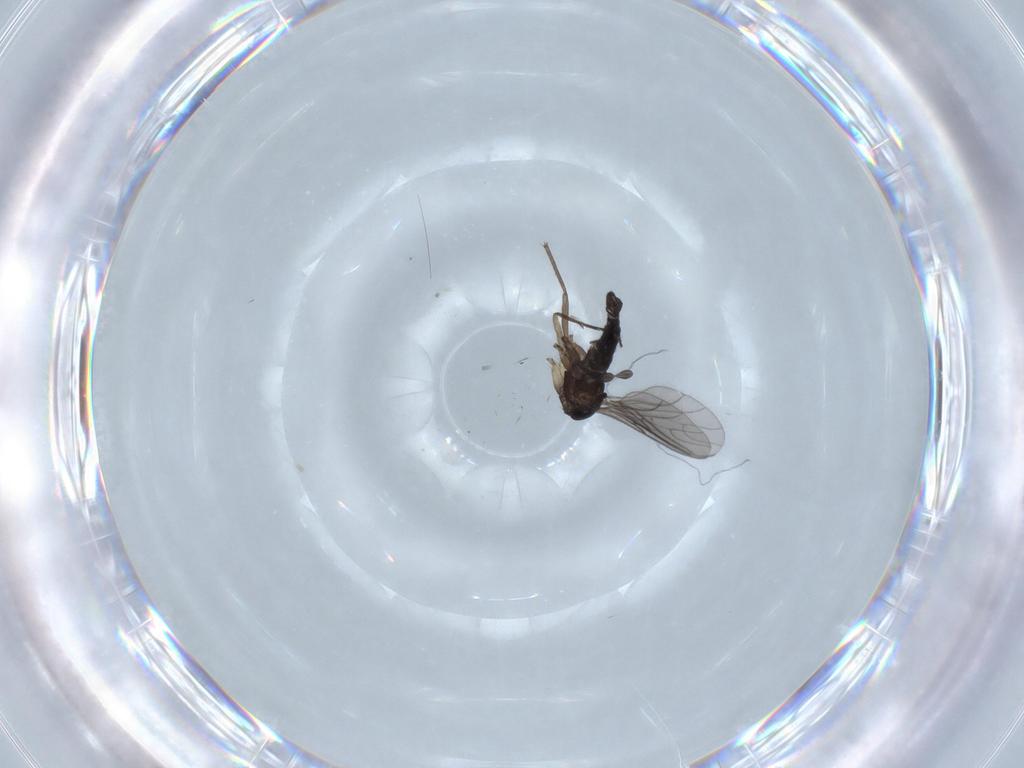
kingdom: Animalia
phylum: Arthropoda
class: Insecta
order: Diptera
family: Sciaridae
